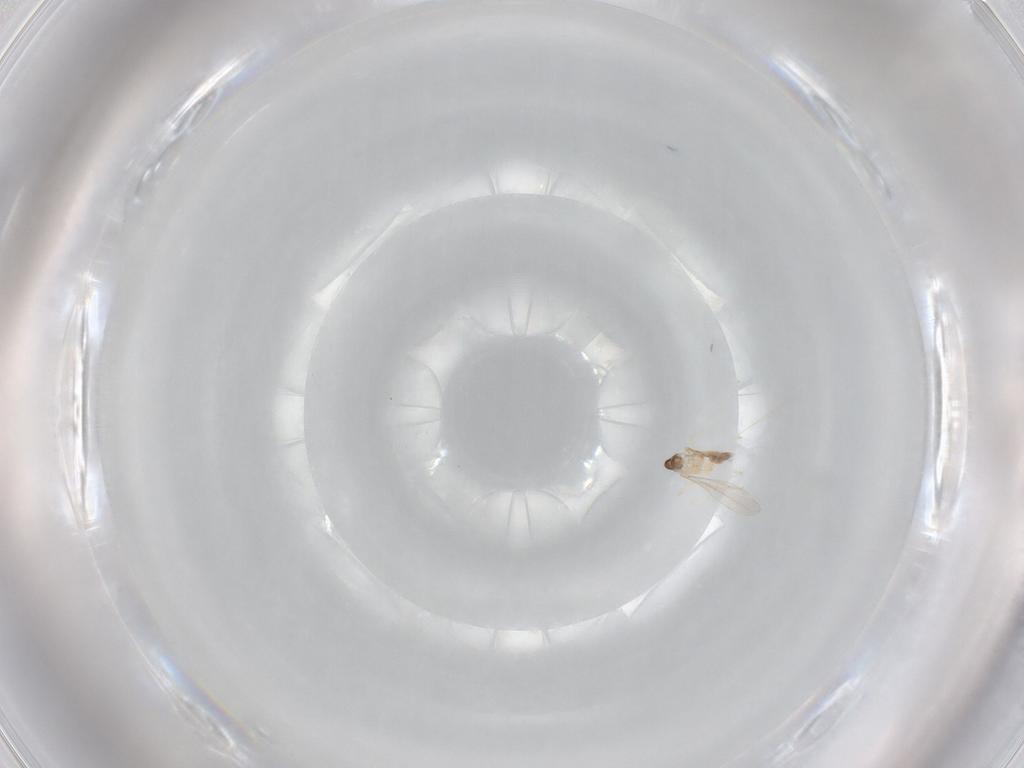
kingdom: Animalia
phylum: Arthropoda
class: Insecta
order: Diptera
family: Cecidomyiidae
